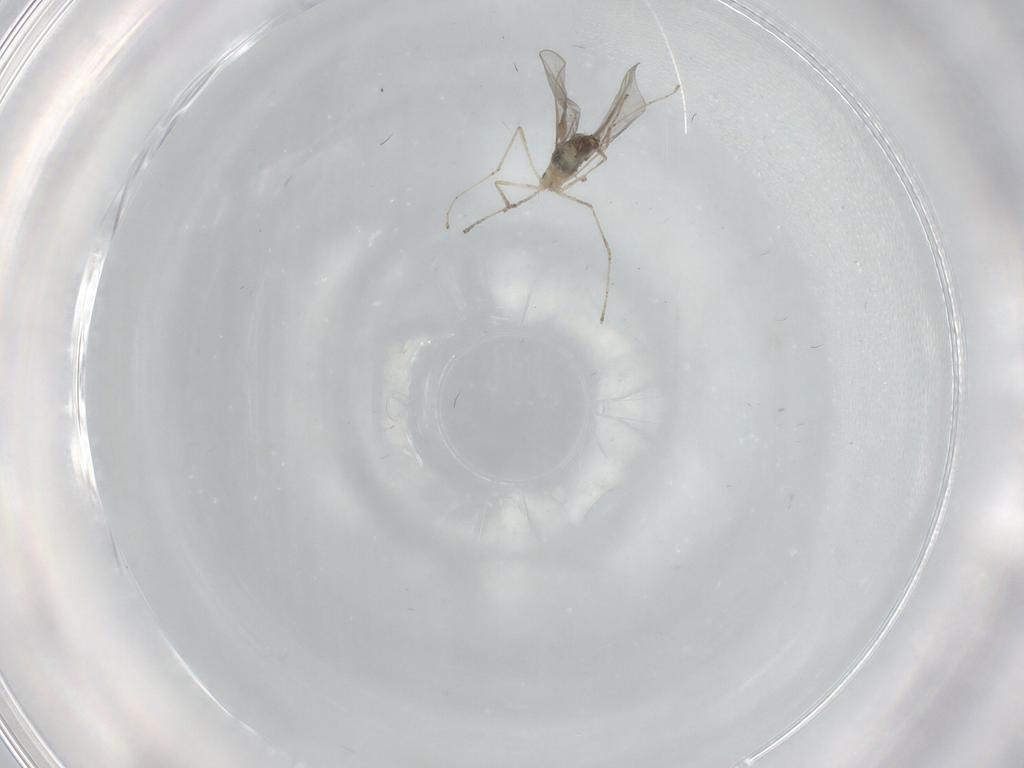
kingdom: Animalia
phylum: Arthropoda
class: Insecta
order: Diptera
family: Cecidomyiidae
